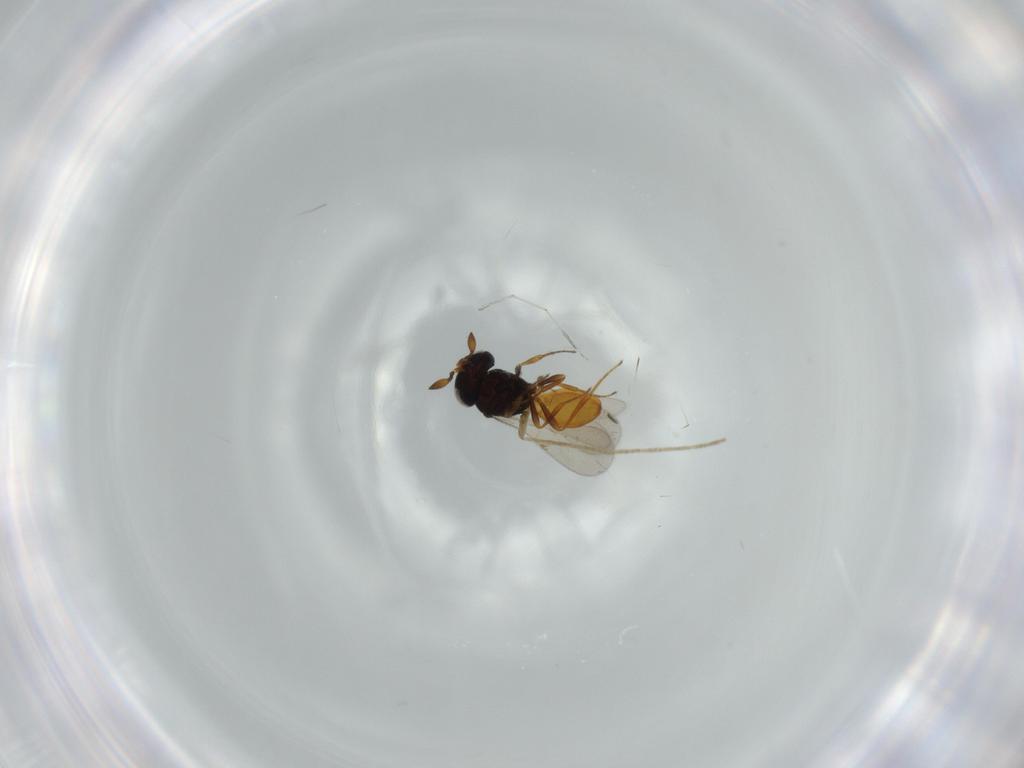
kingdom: Animalia
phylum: Arthropoda
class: Insecta
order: Hymenoptera
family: Scelionidae
